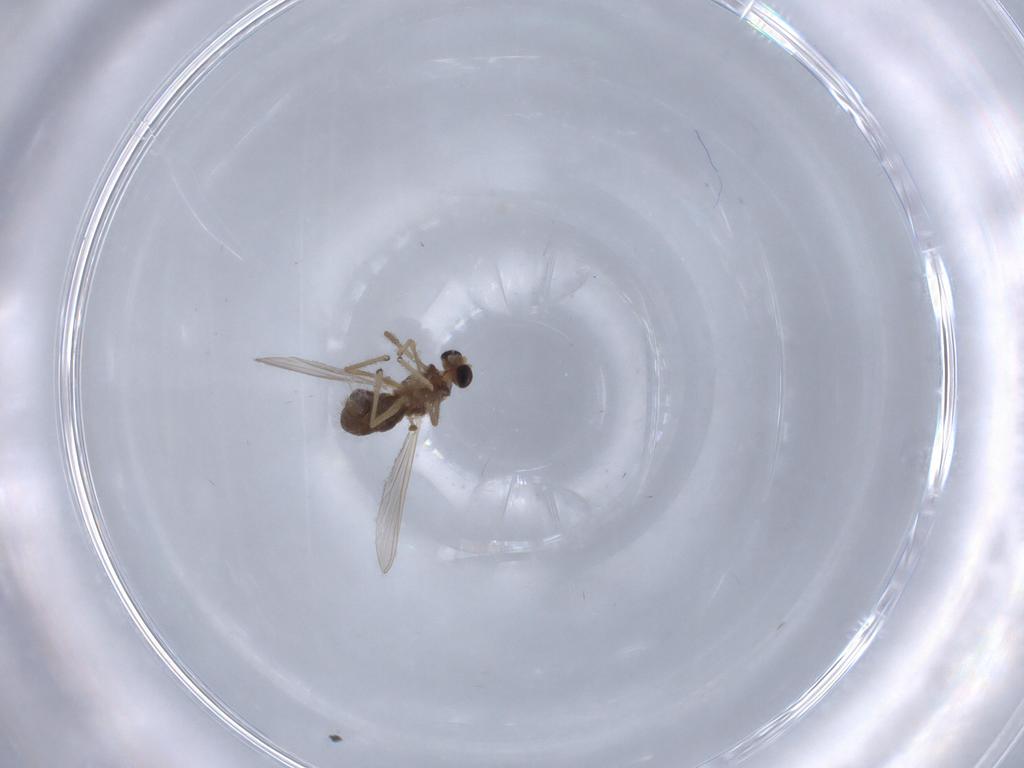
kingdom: Animalia
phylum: Arthropoda
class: Insecta
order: Diptera
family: Chironomidae
